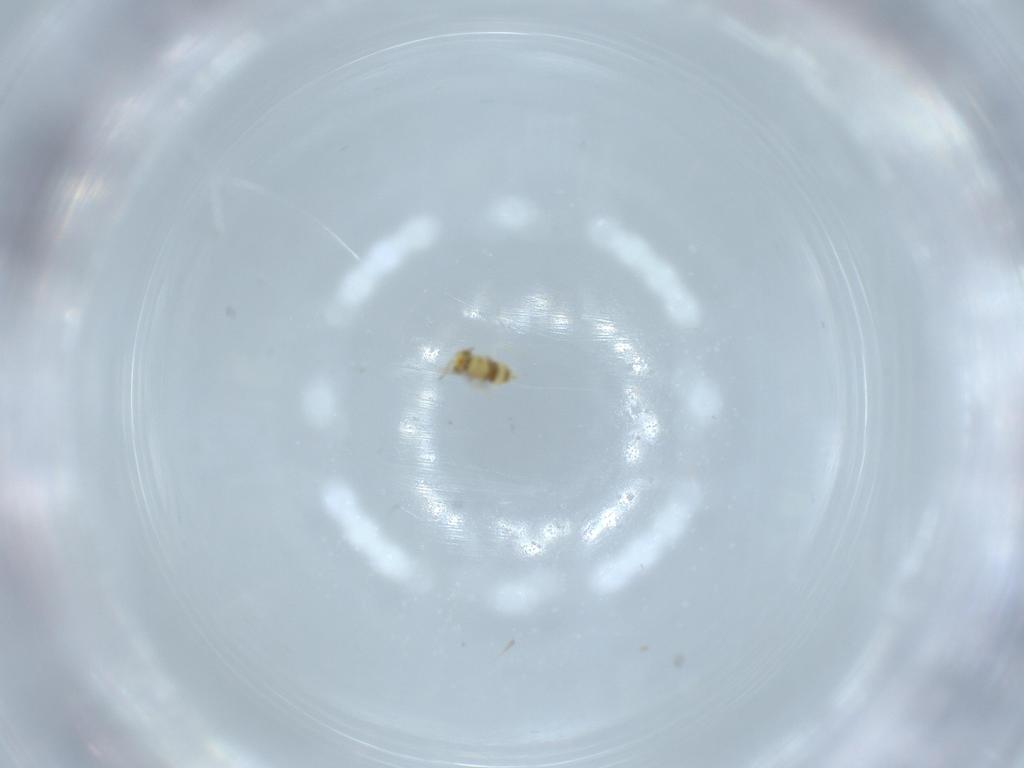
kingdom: Animalia
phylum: Arthropoda
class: Insecta
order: Hymenoptera
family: Aphelinidae
